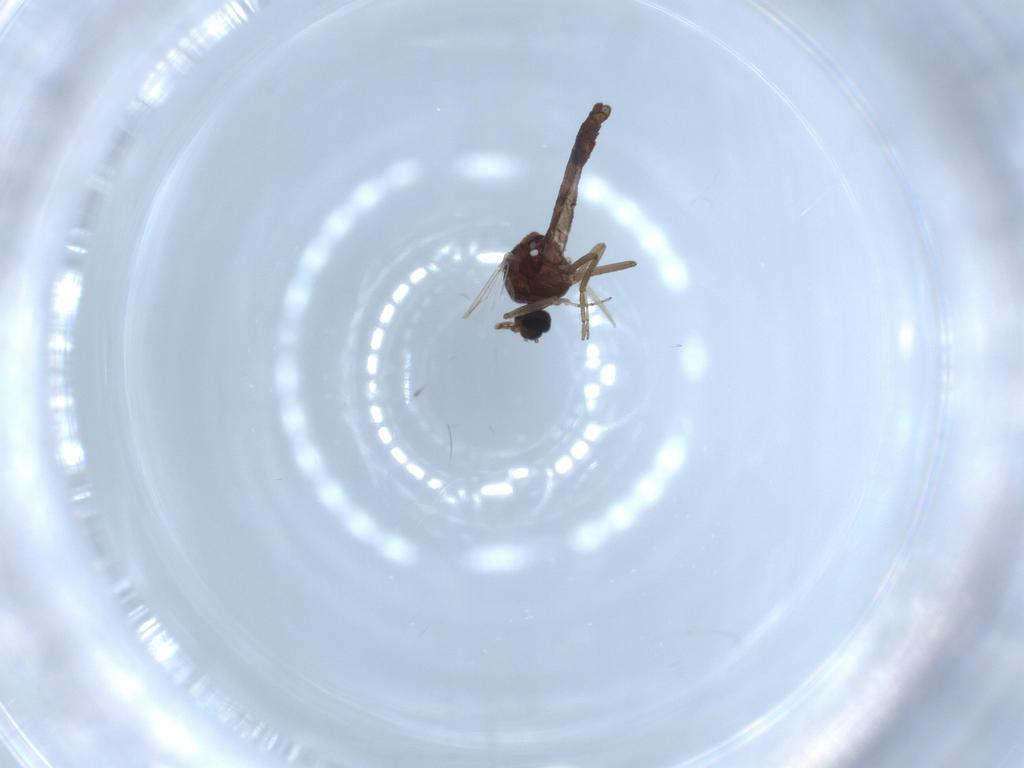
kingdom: Animalia
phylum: Arthropoda
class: Insecta
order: Diptera
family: Ceratopogonidae
